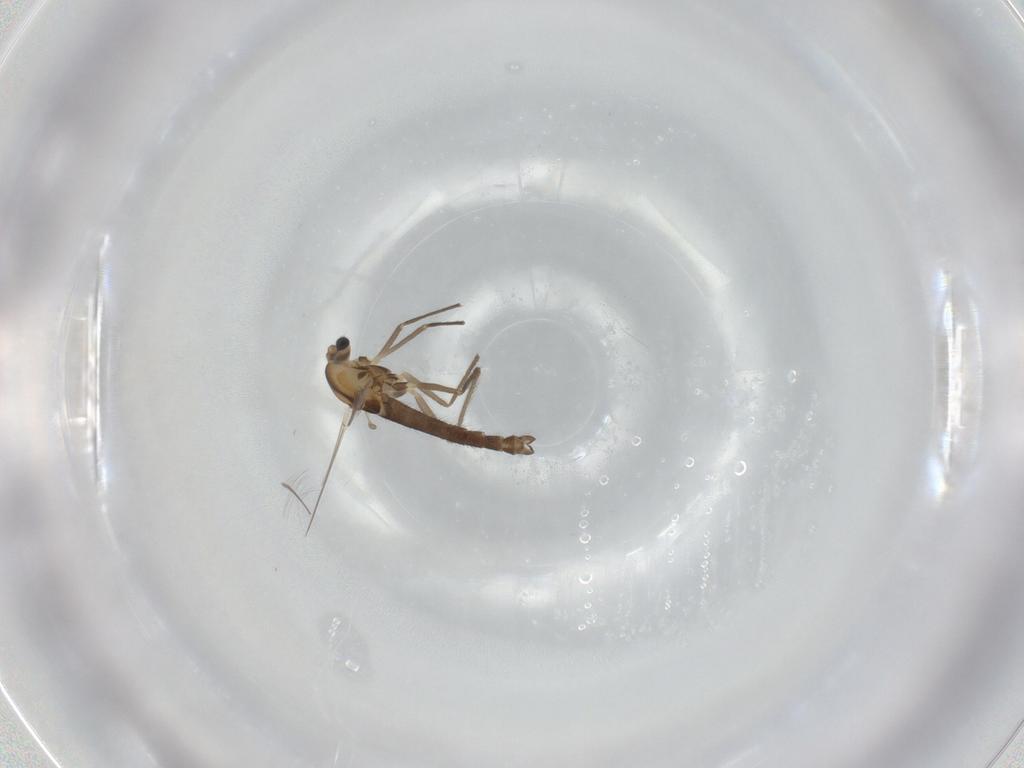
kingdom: Animalia
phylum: Arthropoda
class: Insecta
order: Diptera
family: Chironomidae
